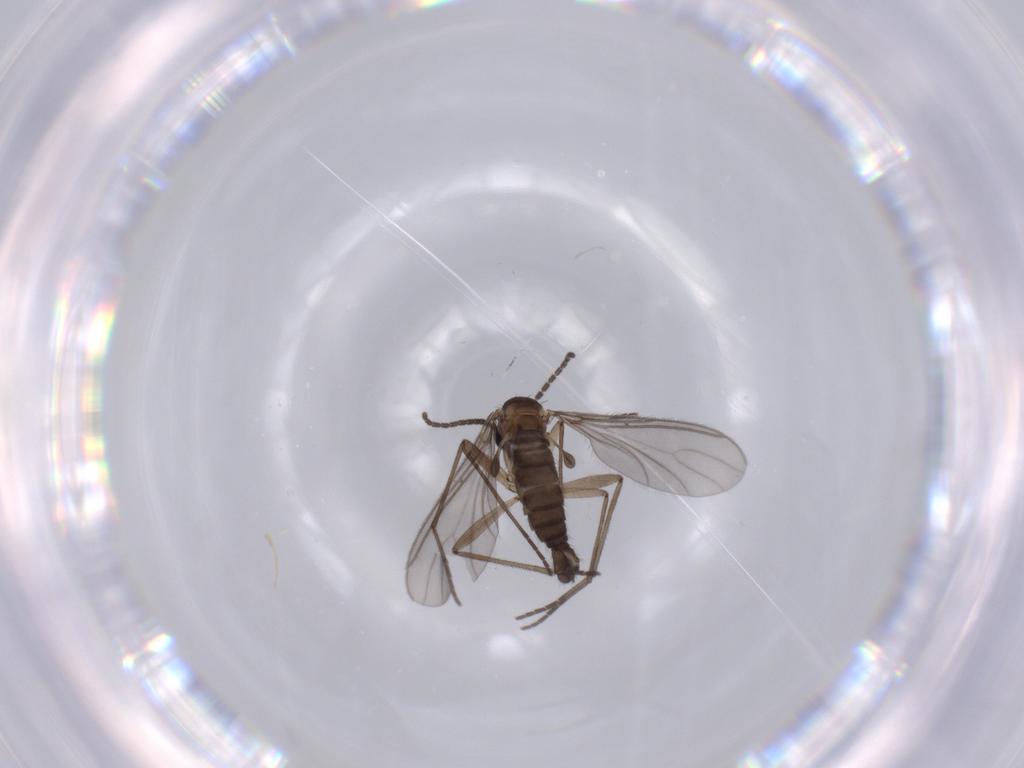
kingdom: Animalia
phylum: Arthropoda
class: Insecta
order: Diptera
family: Sciaridae
